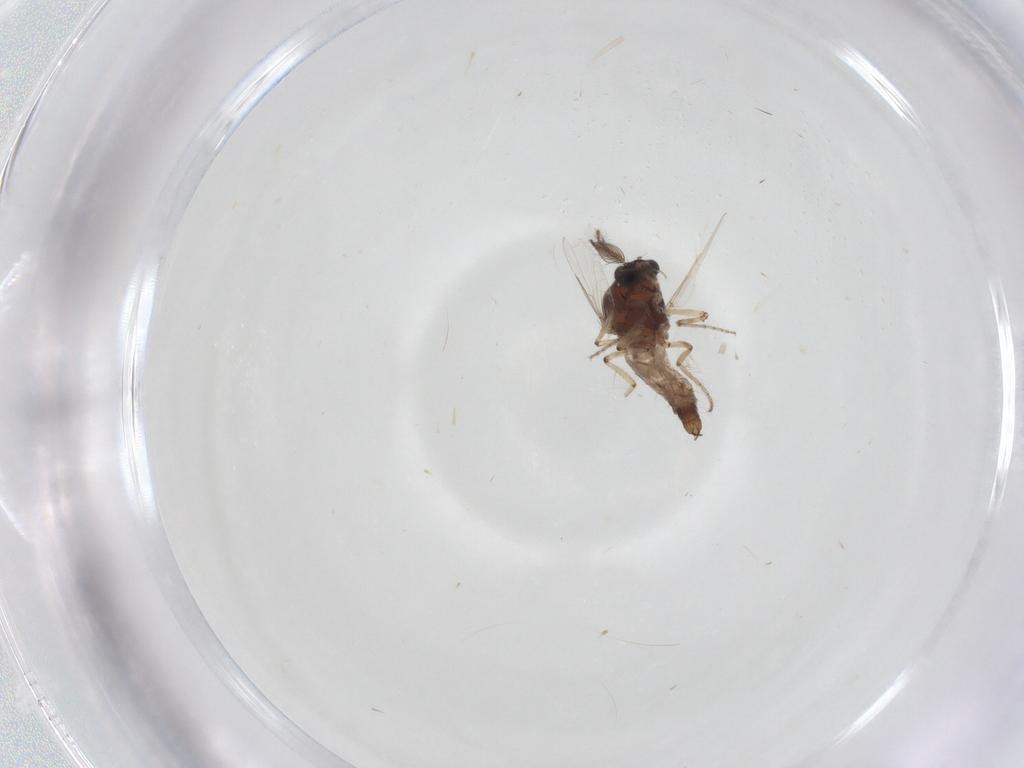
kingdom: Animalia
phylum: Arthropoda
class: Insecta
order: Diptera
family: Ceratopogonidae
